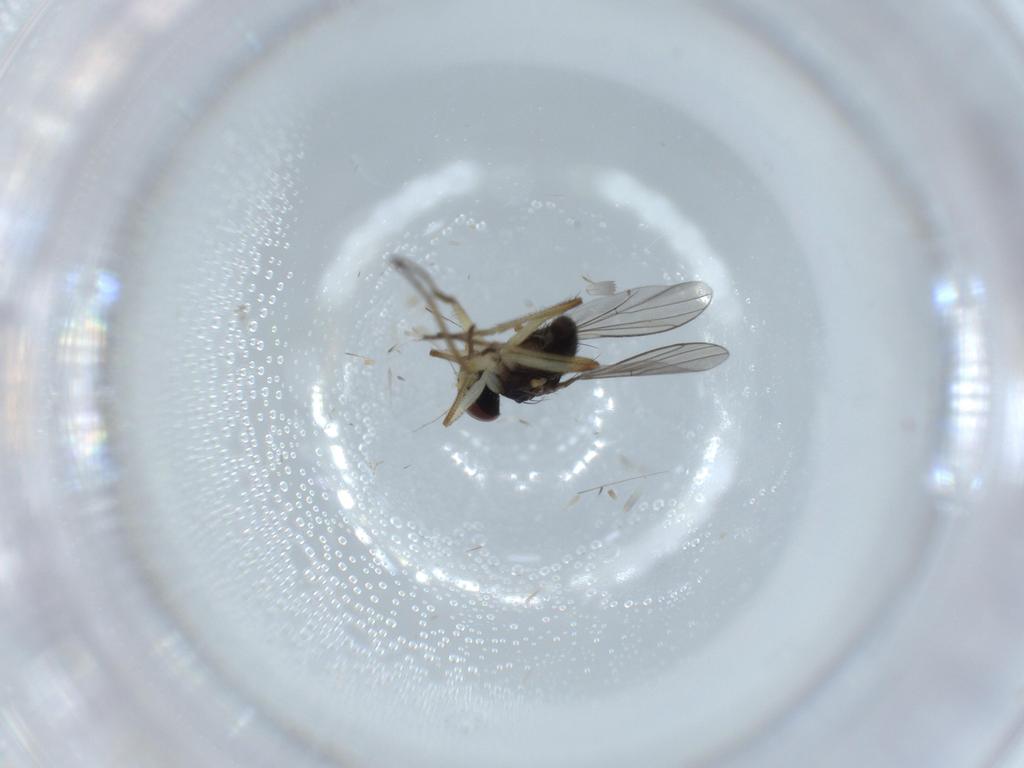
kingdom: Animalia
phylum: Arthropoda
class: Insecta
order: Diptera
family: Dolichopodidae
